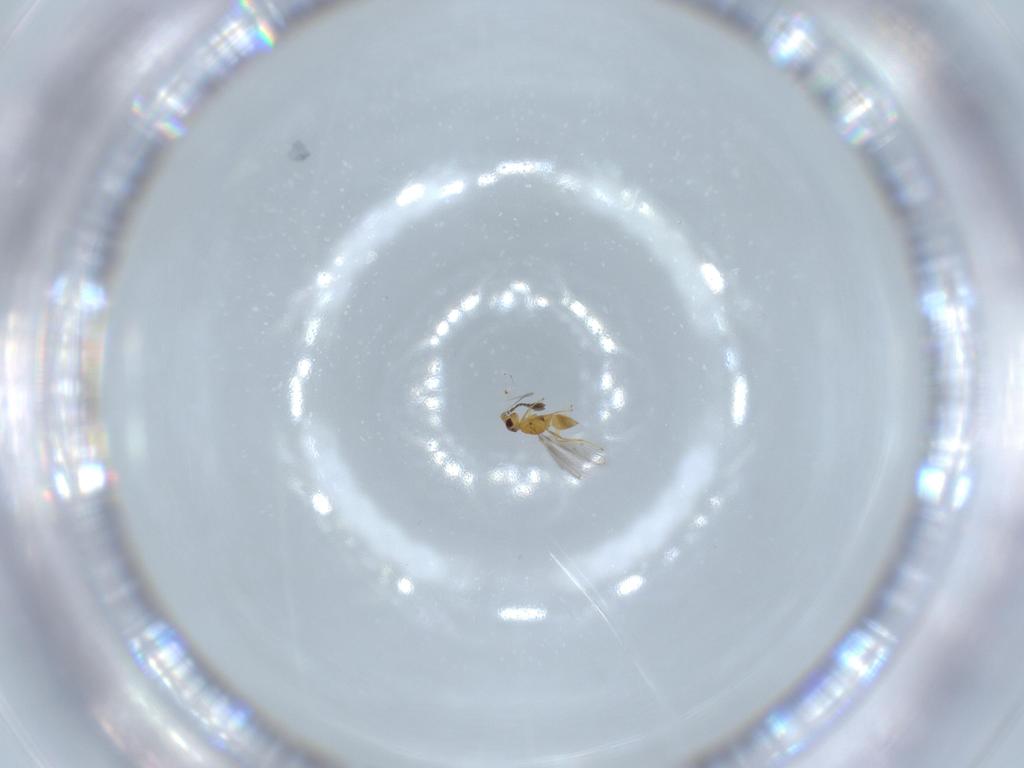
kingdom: Animalia
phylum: Arthropoda
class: Insecta
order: Hymenoptera
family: Mymaridae
